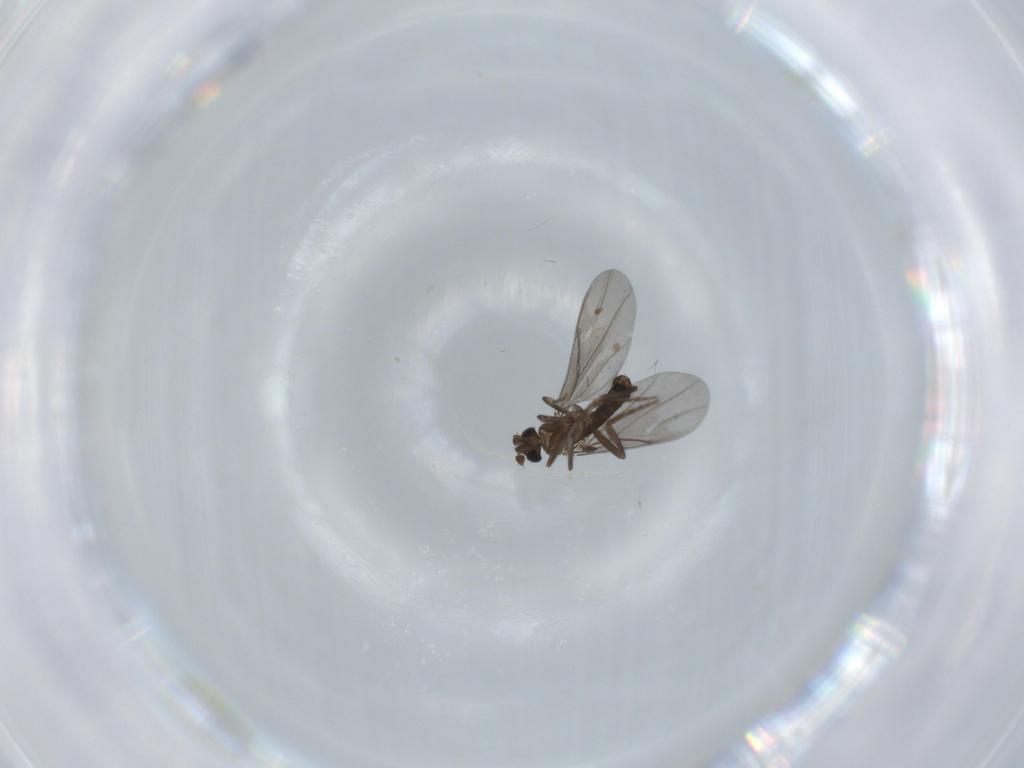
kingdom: Animalia
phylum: Arthropoda
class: Insecta
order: Diptera
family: Phoridae
